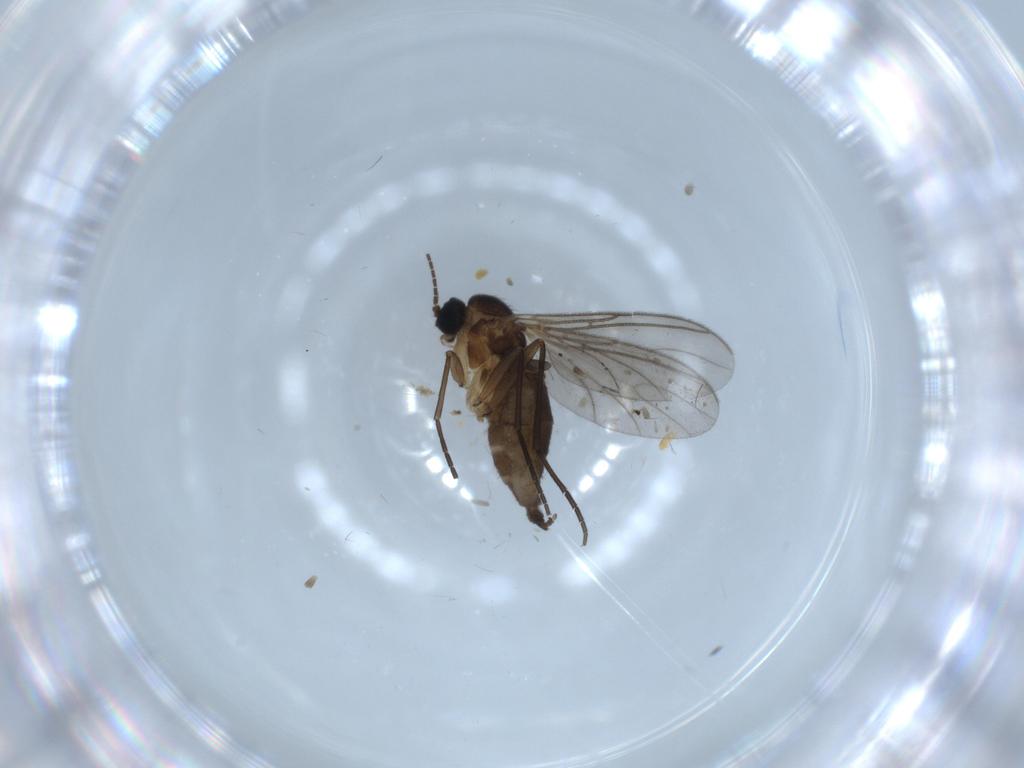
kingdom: Animalia
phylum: Arthropoda
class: Insecta
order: Diptera
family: Sciaridae
